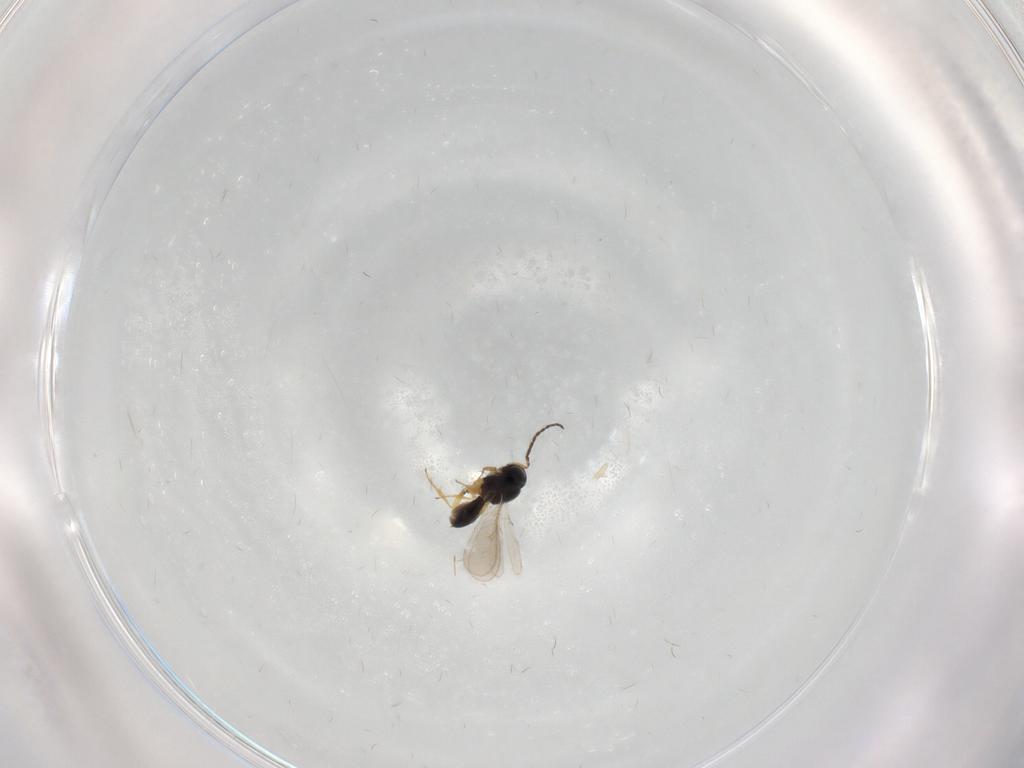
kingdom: Animalia
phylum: Arthropoda
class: Insecta
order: Hymenoptera
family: Scelionidae
